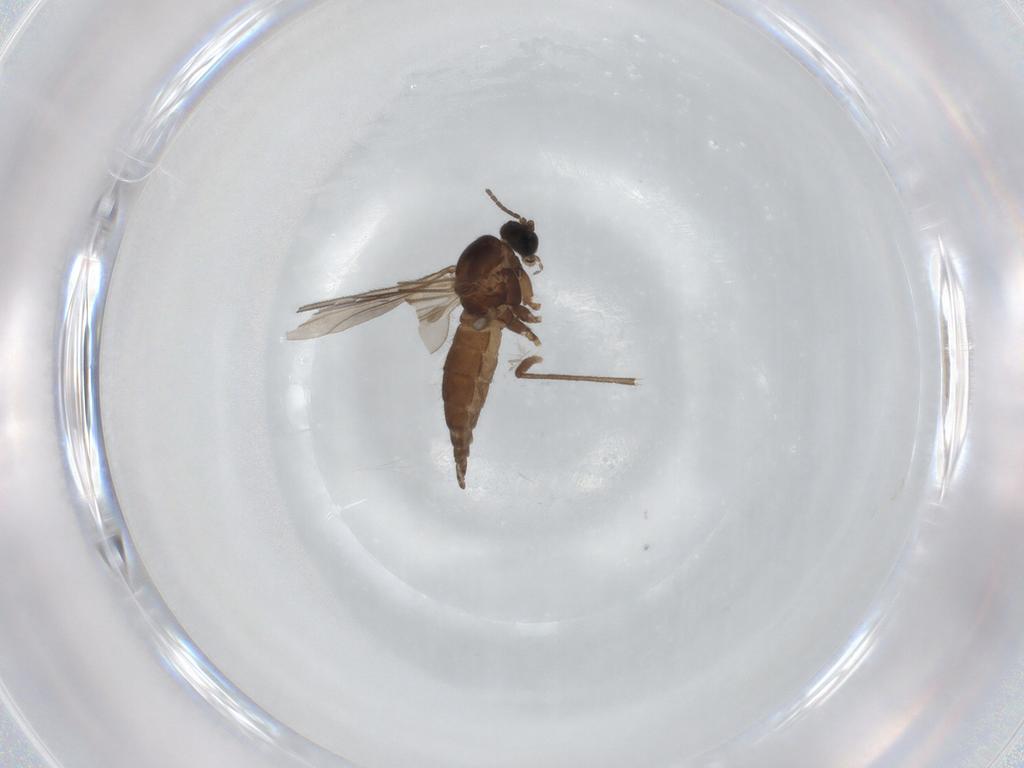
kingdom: Animalia
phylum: Arthropoda
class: Insecta
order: Diptera
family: Sciaridae
